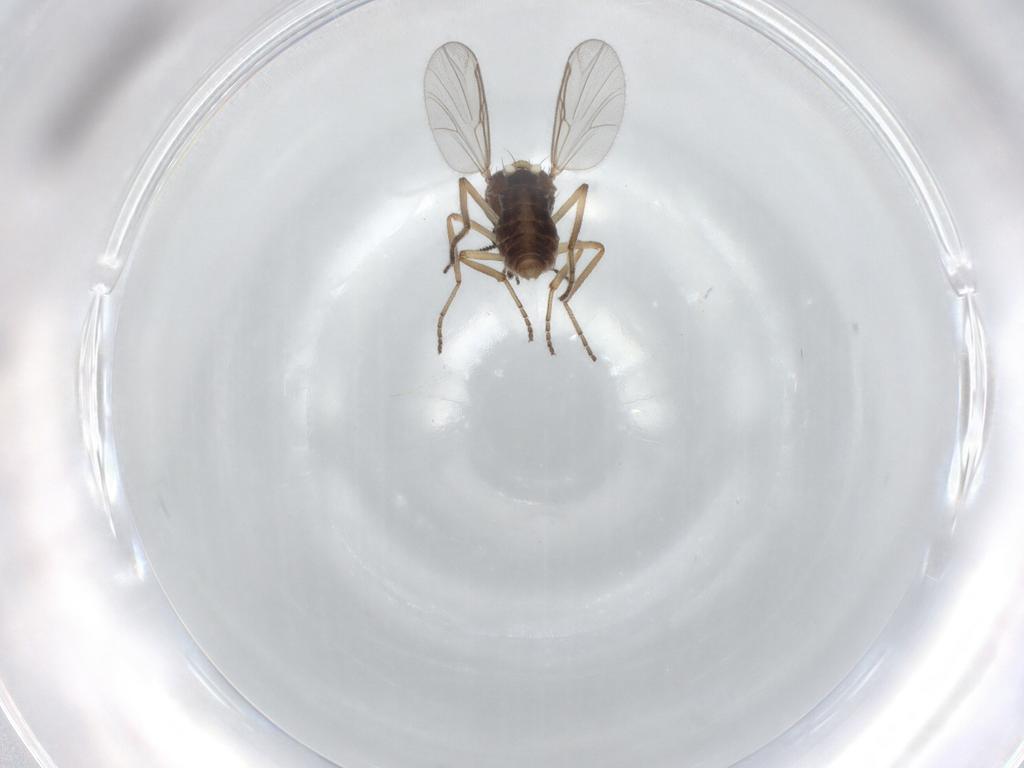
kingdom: Animalia
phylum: Arthropoda
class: Insecta
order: Diptera
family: Ceratopogonidae
